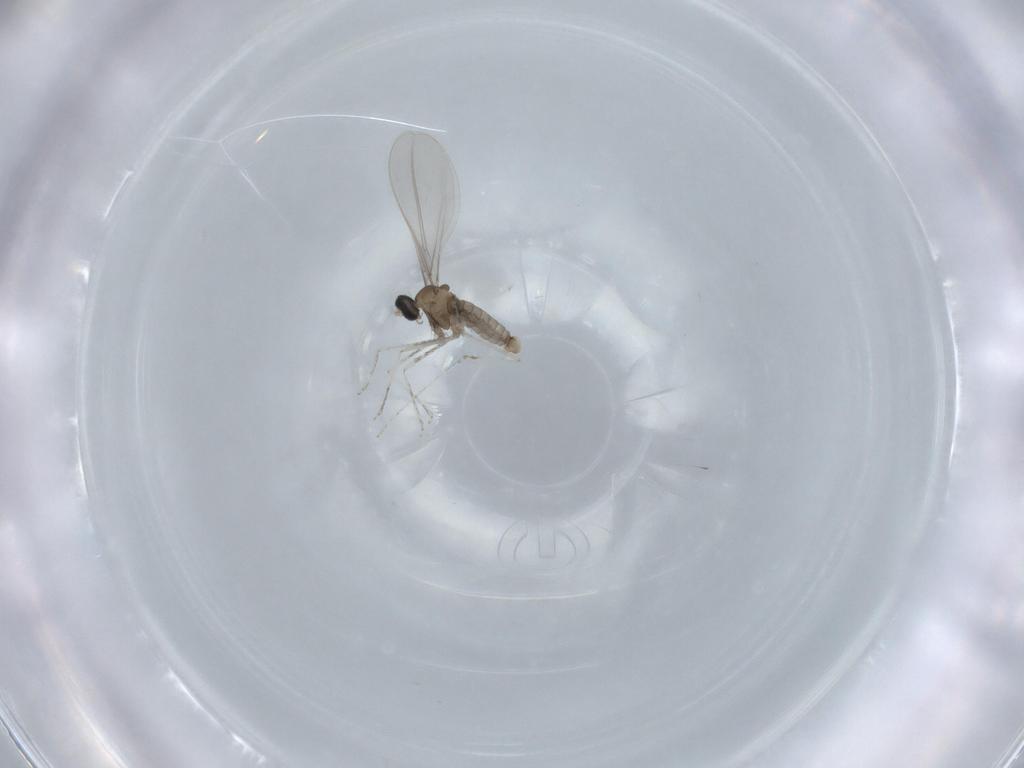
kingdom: Animalia
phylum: Arthropoda
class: Insecta
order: Diptera
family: Cecidomyiidae
